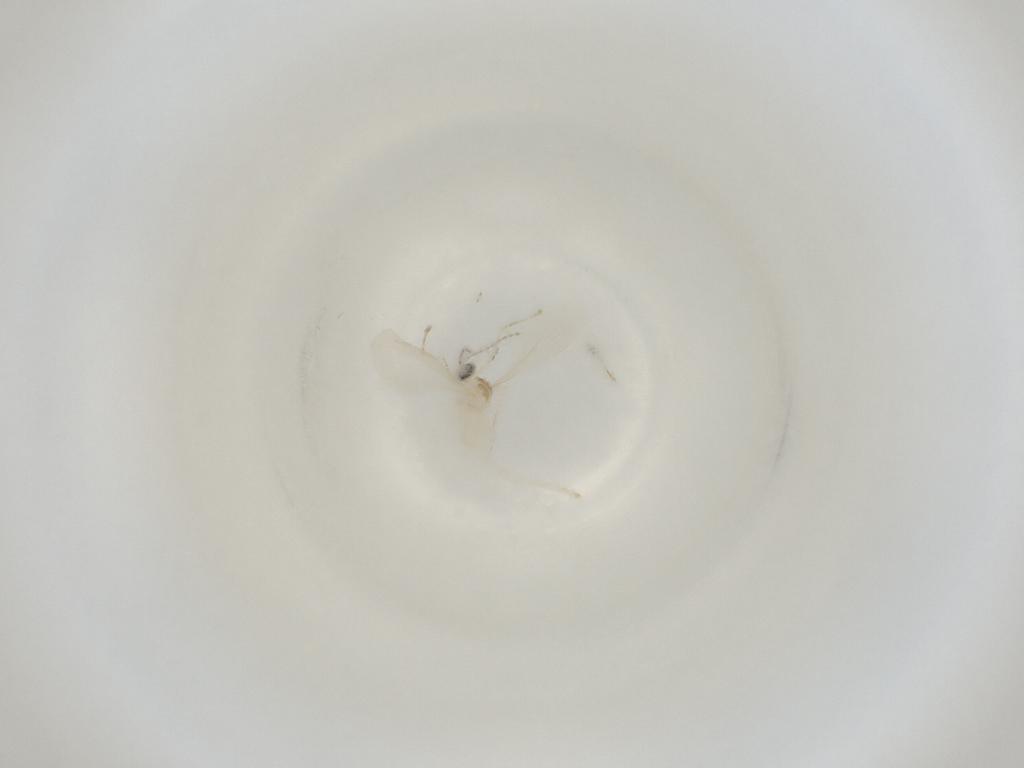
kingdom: Animalia
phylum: Arthropoda
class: Insecta
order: Diptera
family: Cecidomyiidae
